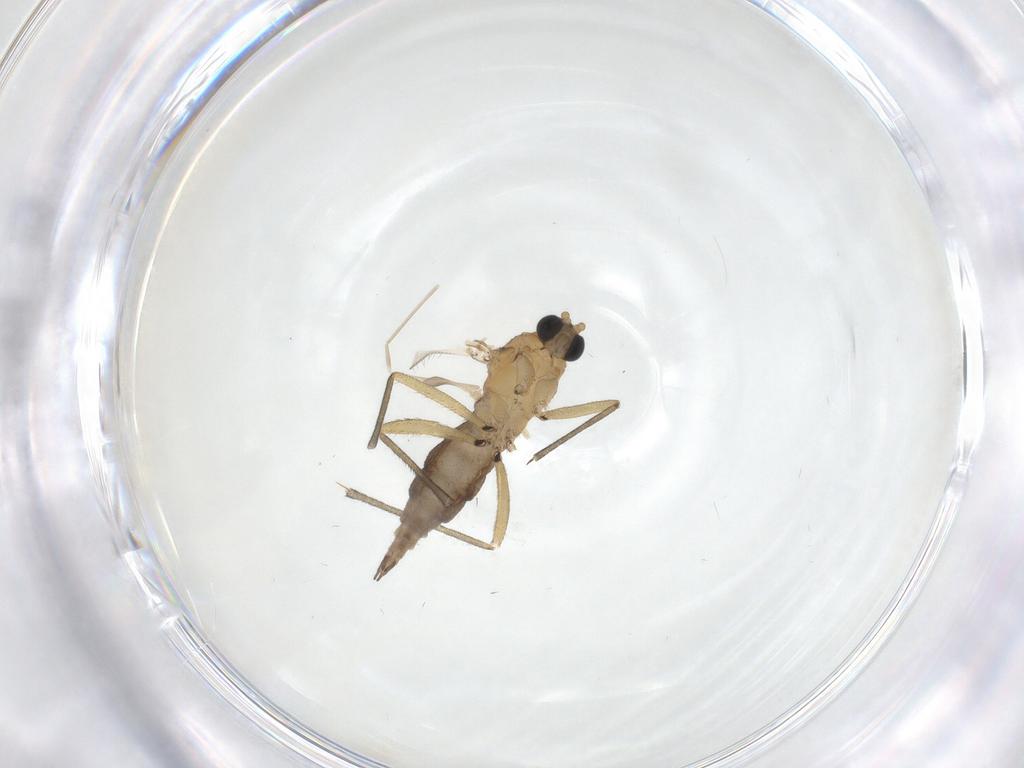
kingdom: Animalia
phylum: Arthropoda
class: Insecta
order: Diptera
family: Sciaridae
